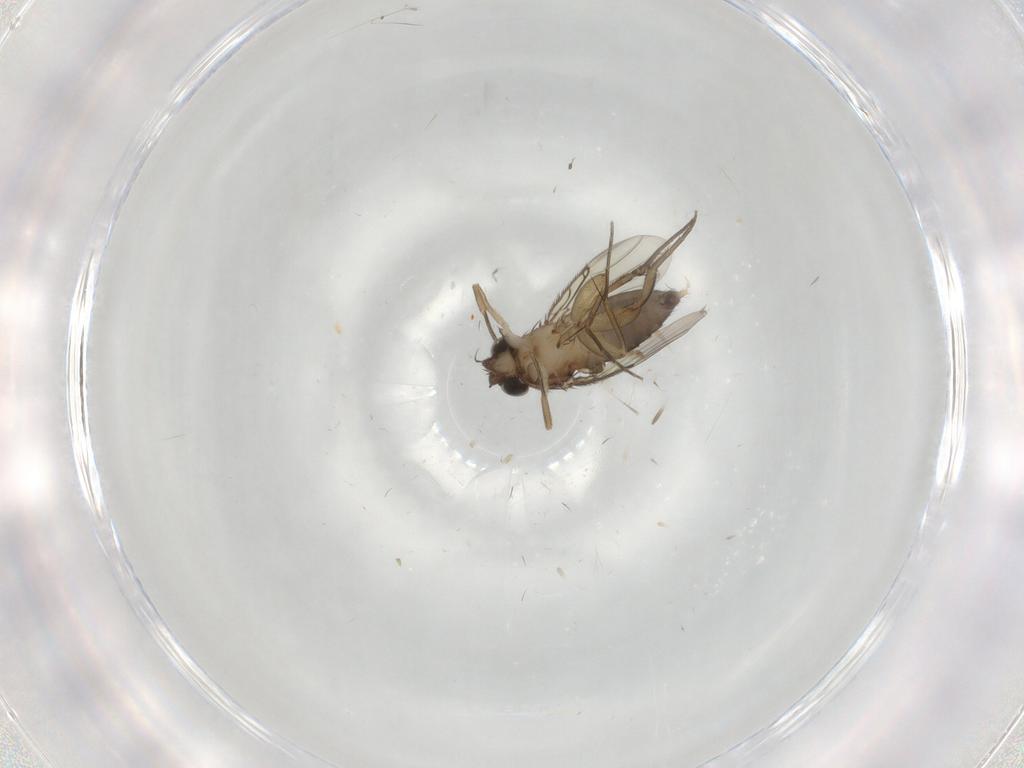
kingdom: Animalia
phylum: Arthropoda
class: Insecta
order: Diptera
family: Phoridae
